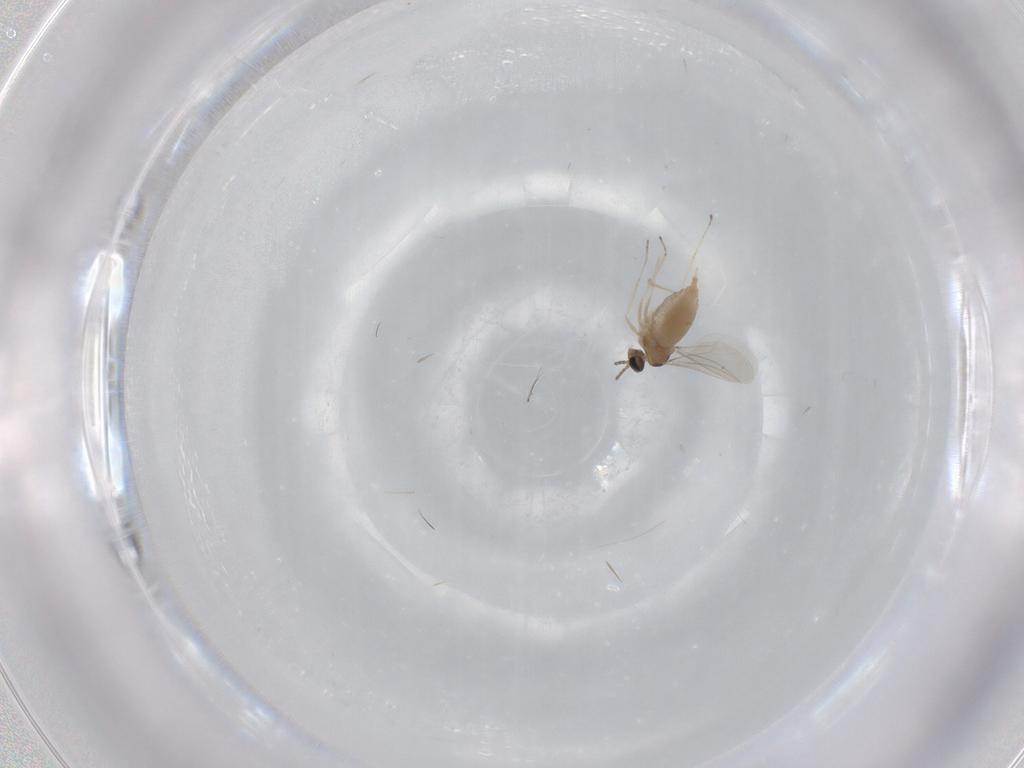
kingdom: Animalia
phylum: Arthropoda
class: Insecta
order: Diptera
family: Cecidomyiidae
